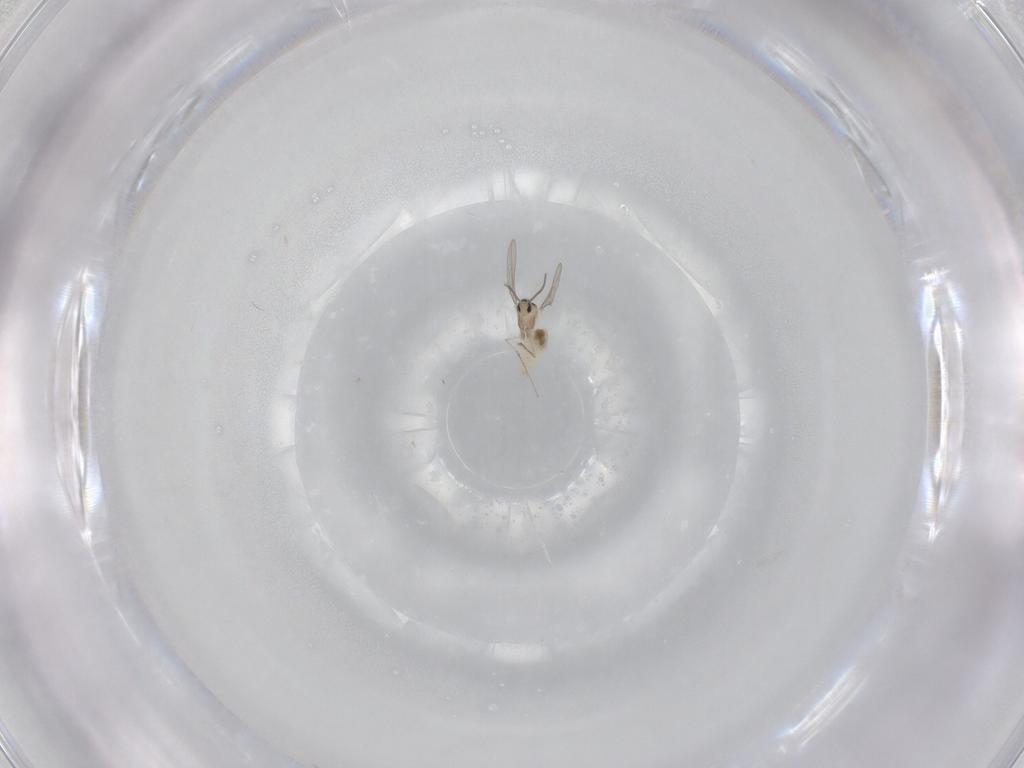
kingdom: Animalia
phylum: Arthropoda
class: Insecta
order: Diptera
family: Cecidomyiidae
